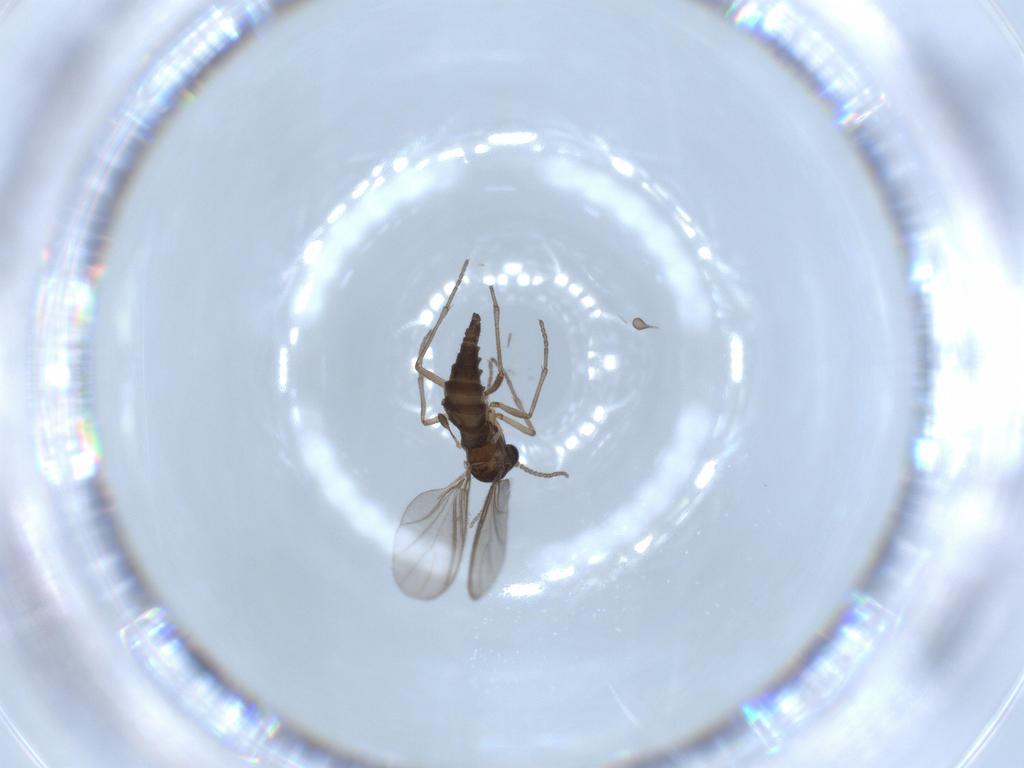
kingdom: Animalia
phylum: Arthropoda
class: Insecta
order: Diptera
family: Sciaridae
